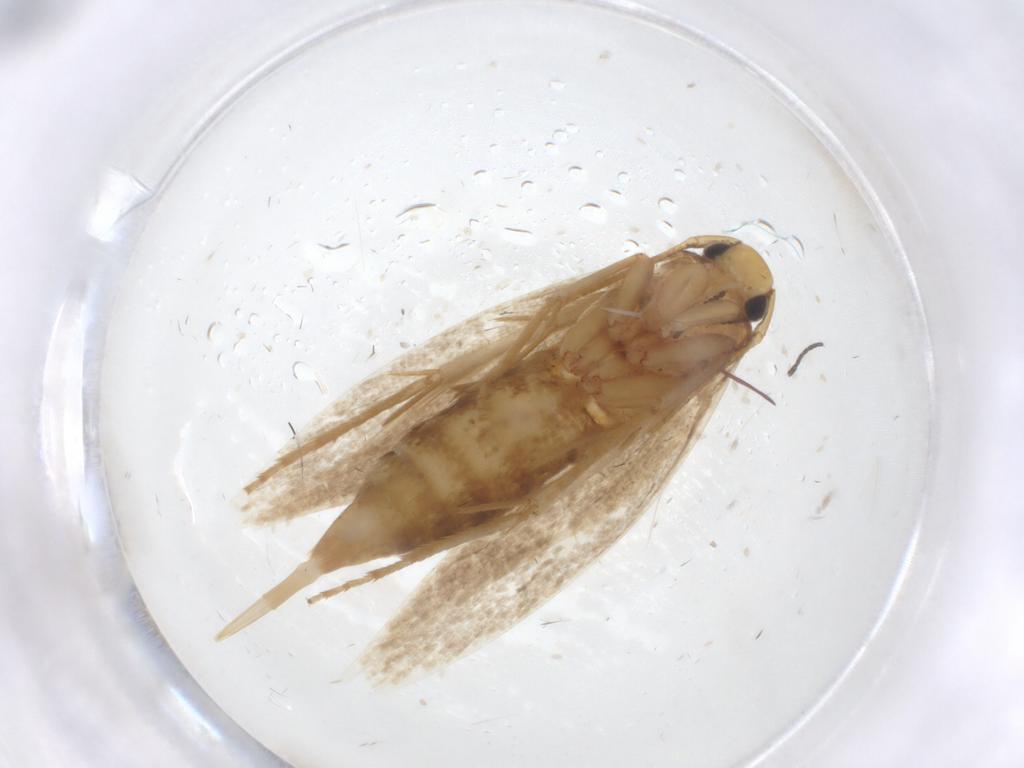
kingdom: Animalia
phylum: Arthropoda
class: Insecta
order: Lepidoptera
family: Tineidae
